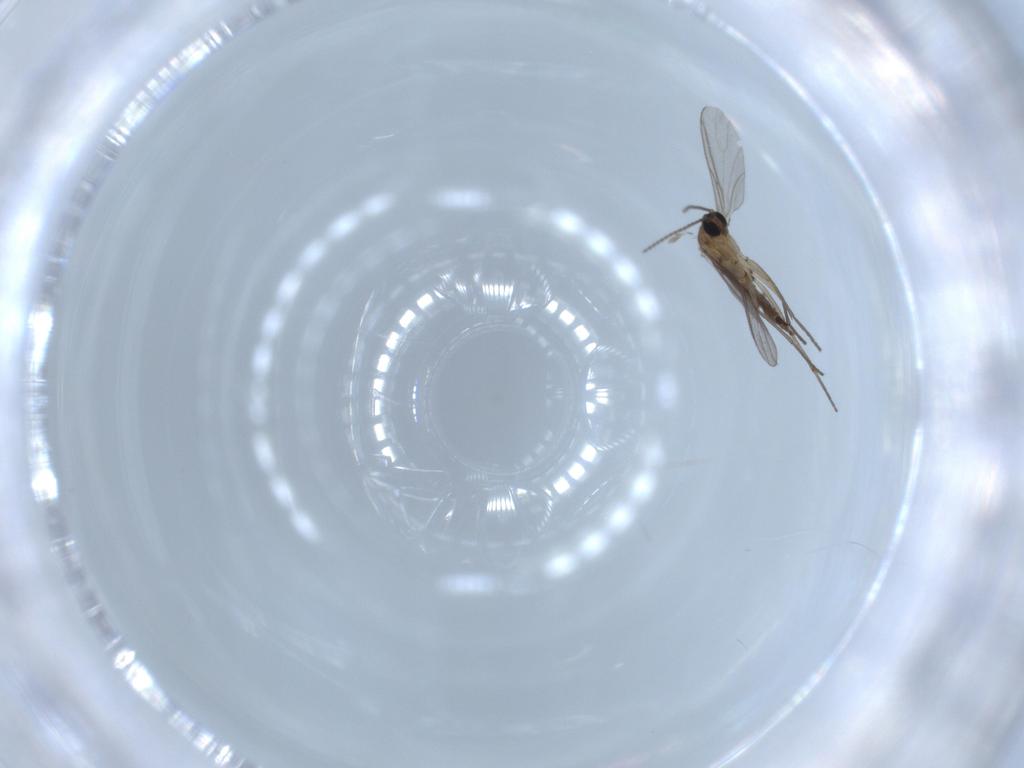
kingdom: Animalia
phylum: Arthropoda
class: Insecta
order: Diptera
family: Sciaridae
